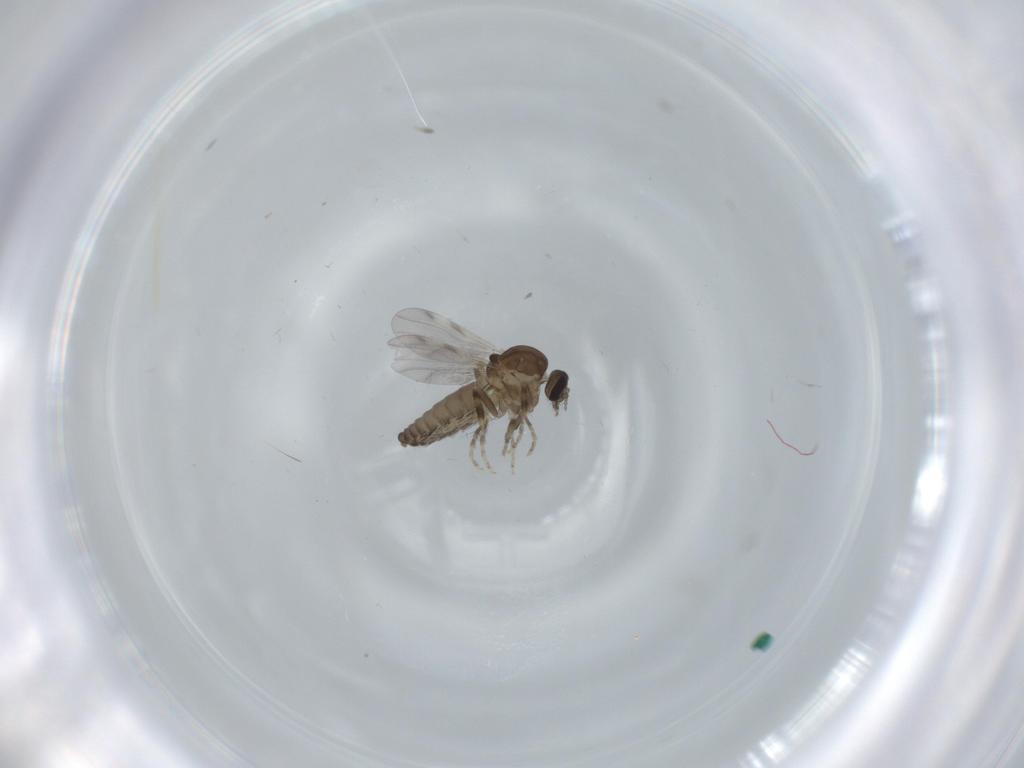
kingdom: Animalia
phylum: Arthropoda
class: Insecta
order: Diptera
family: Ceratopogonidae
